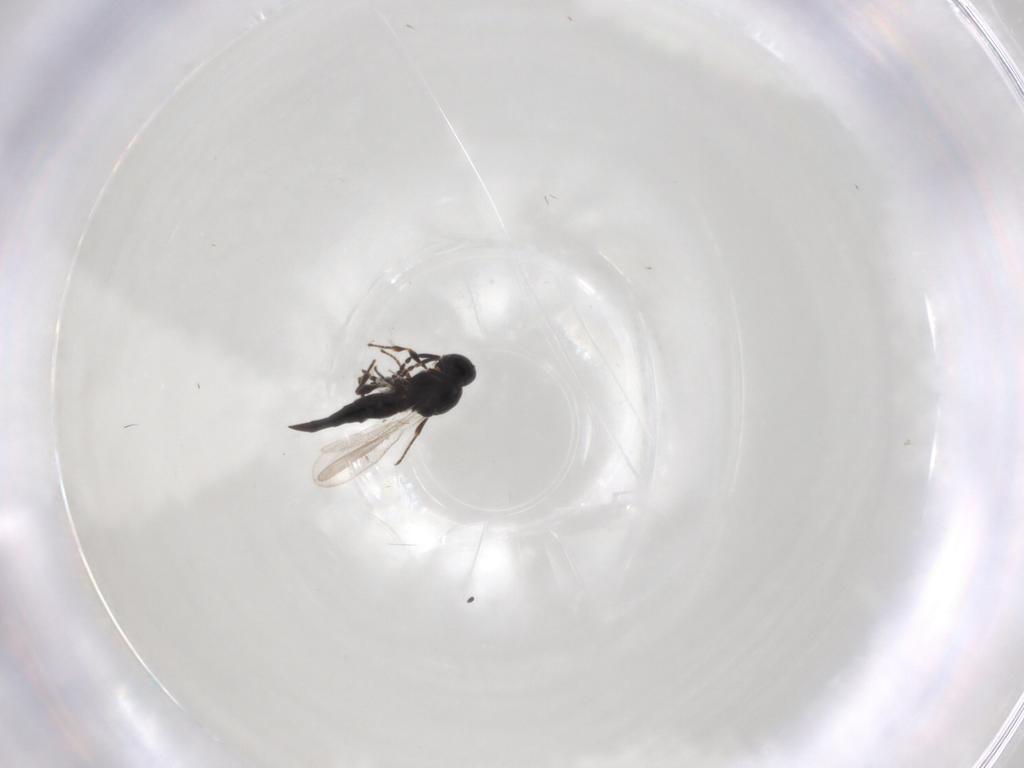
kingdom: Animalia
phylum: Arthropoda
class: Insecta
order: Hymenoptera
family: Platygastridae
